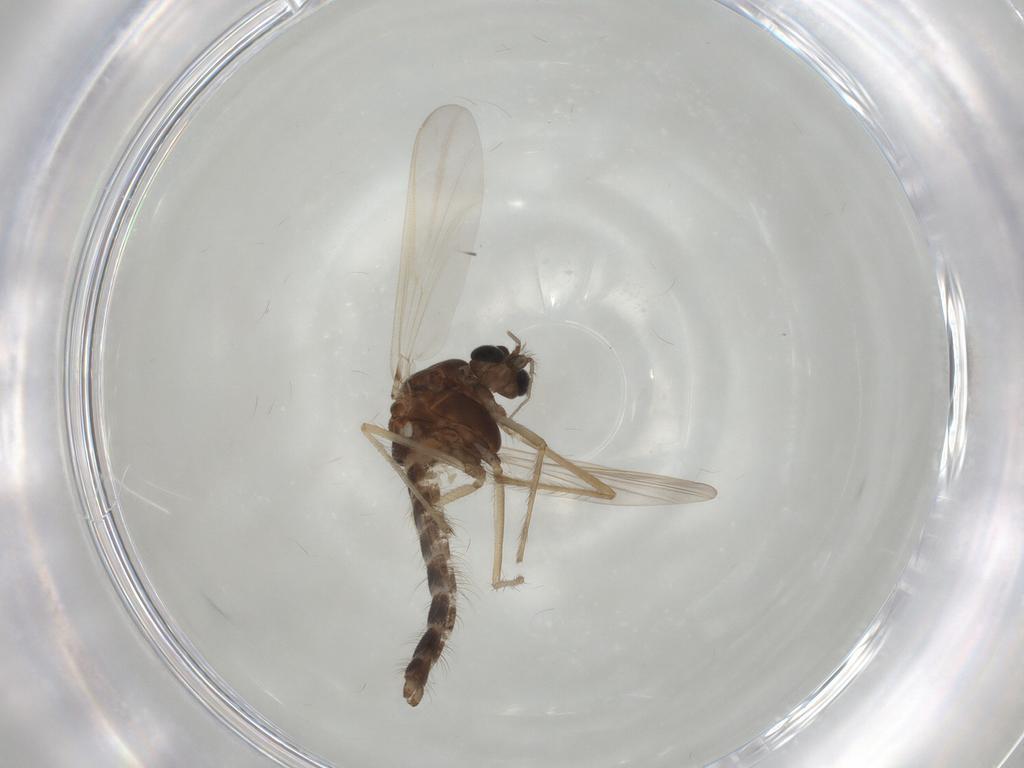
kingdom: Animalia
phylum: Arthropoda
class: Insecta
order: Diptera
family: Chironomidae
